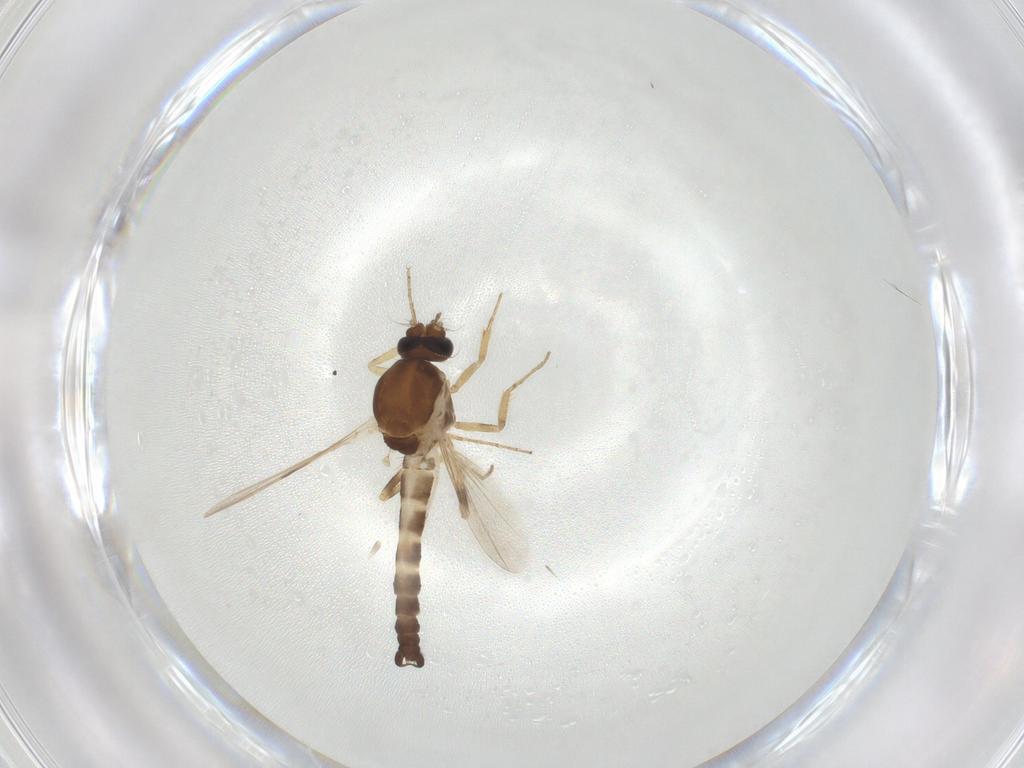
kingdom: Animalia
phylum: Arthropoda
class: Insecta
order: Diptera
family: Ceratopogonidae
